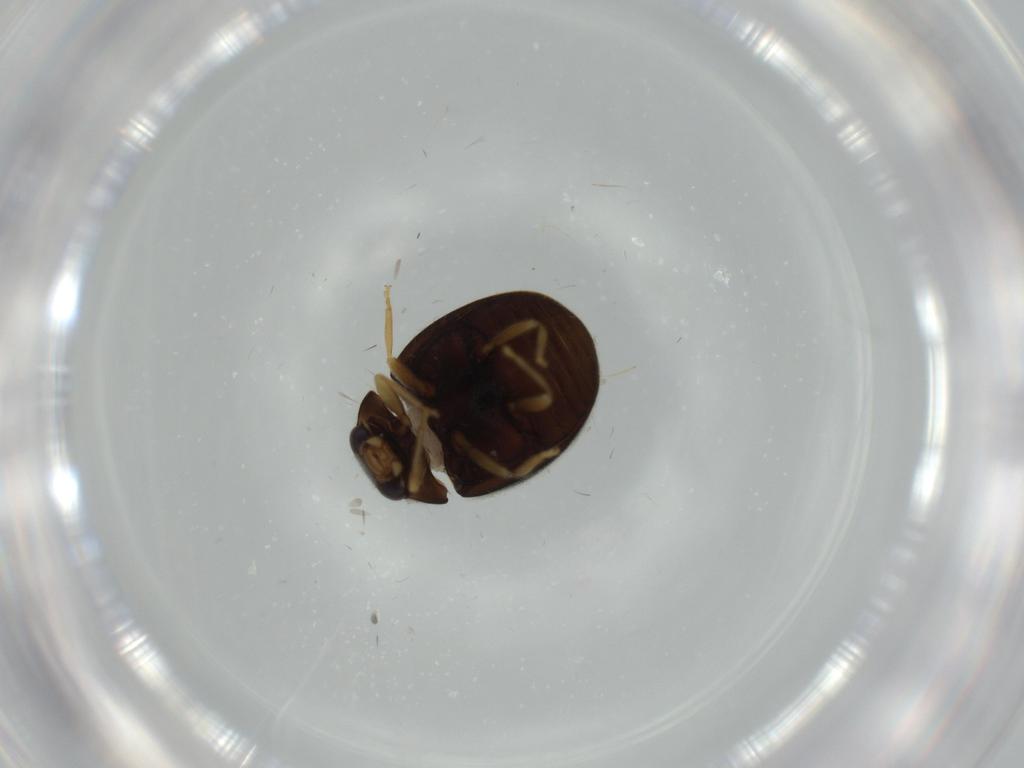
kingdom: Animalia
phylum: Arthropoda
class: Insecta
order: Coleoptera
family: Coccinellidae
